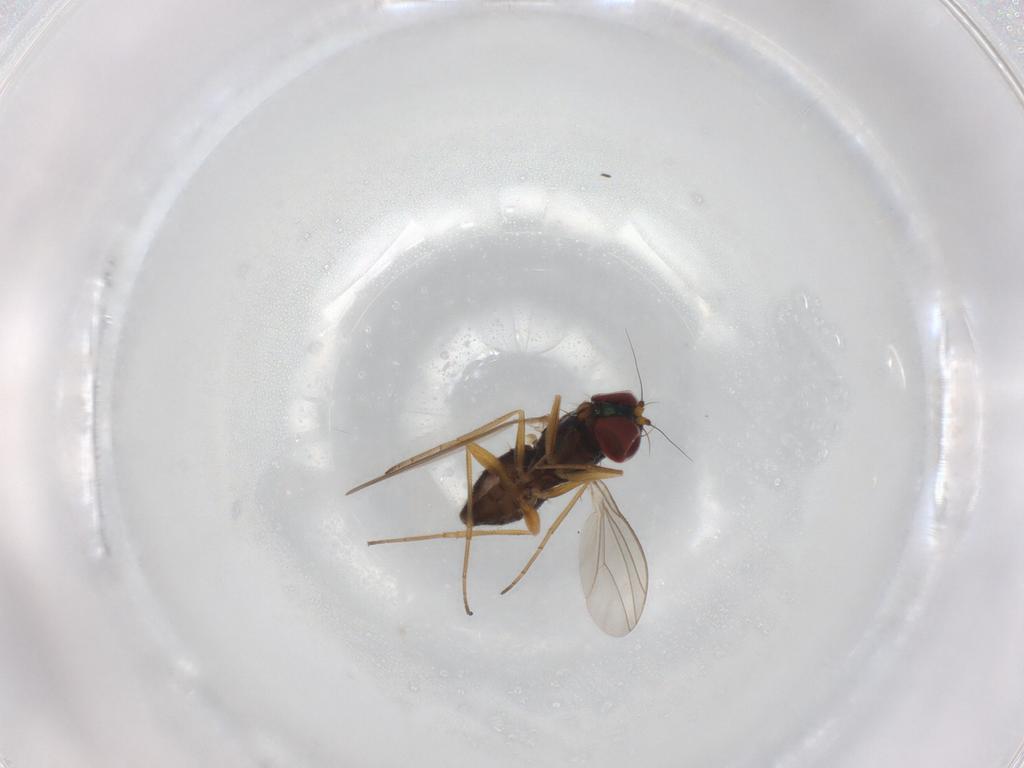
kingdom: Animalia
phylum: Arthropoda
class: Insecta
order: Diptera
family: Dolichopodidae
